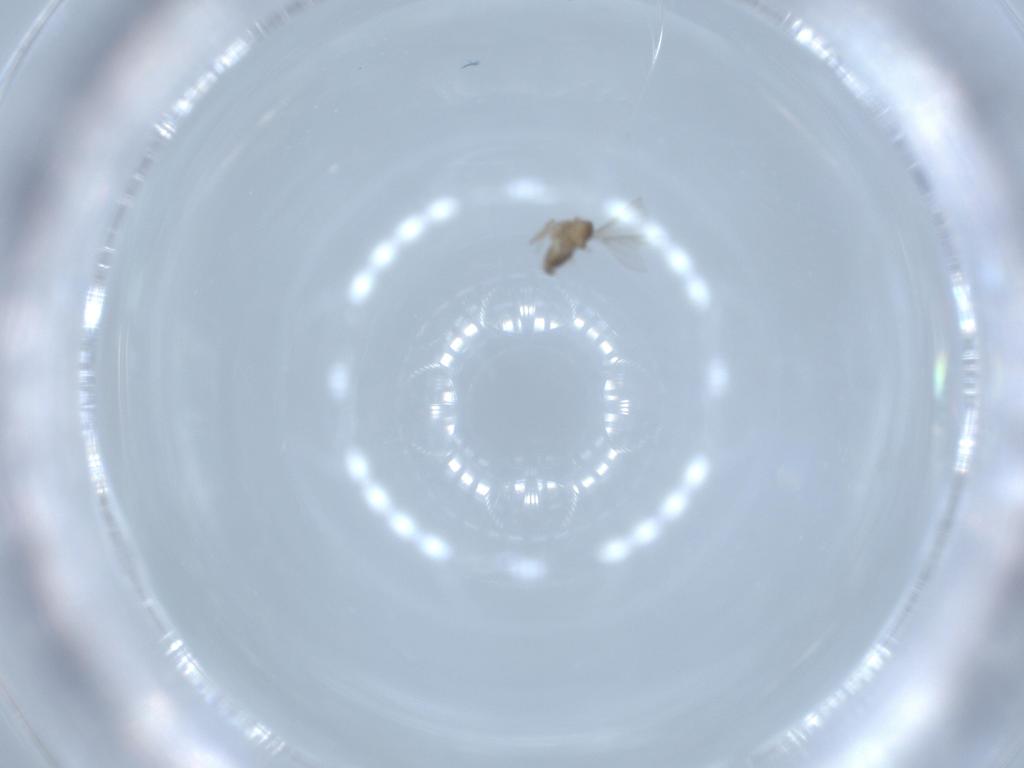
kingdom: Animalia
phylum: Arthropoda
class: Insecta
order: Diptera
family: Cecidomyiidae
